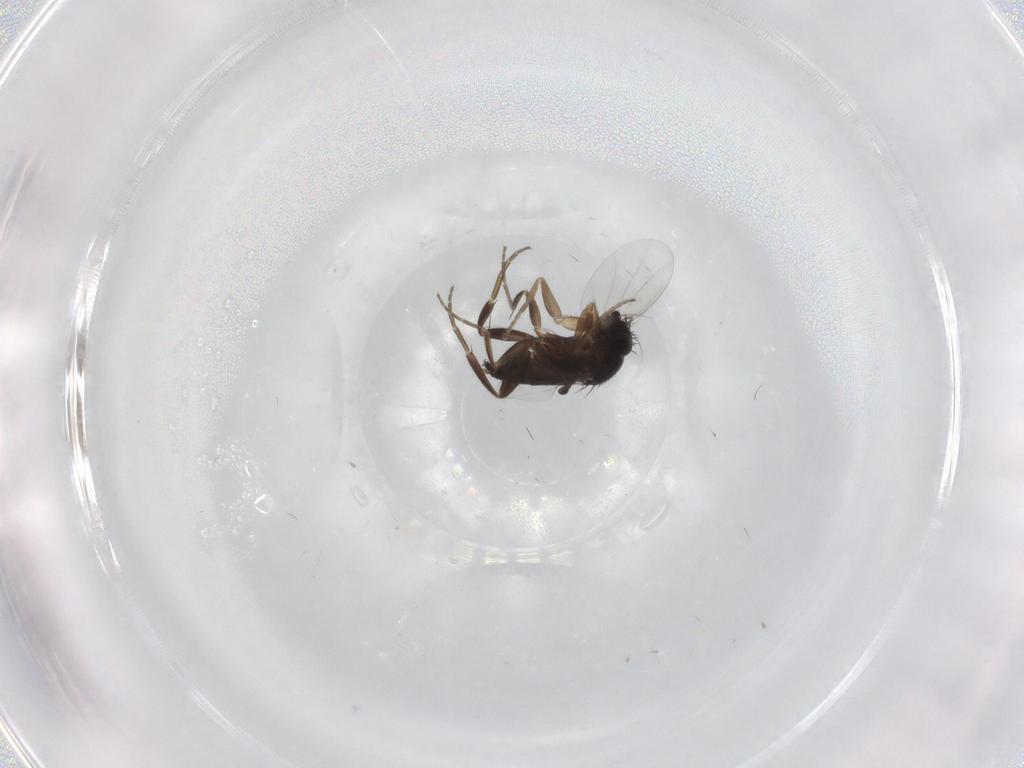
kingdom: Animalia
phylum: Arthropoda
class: Insecta
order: Diptera
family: Phoridae
